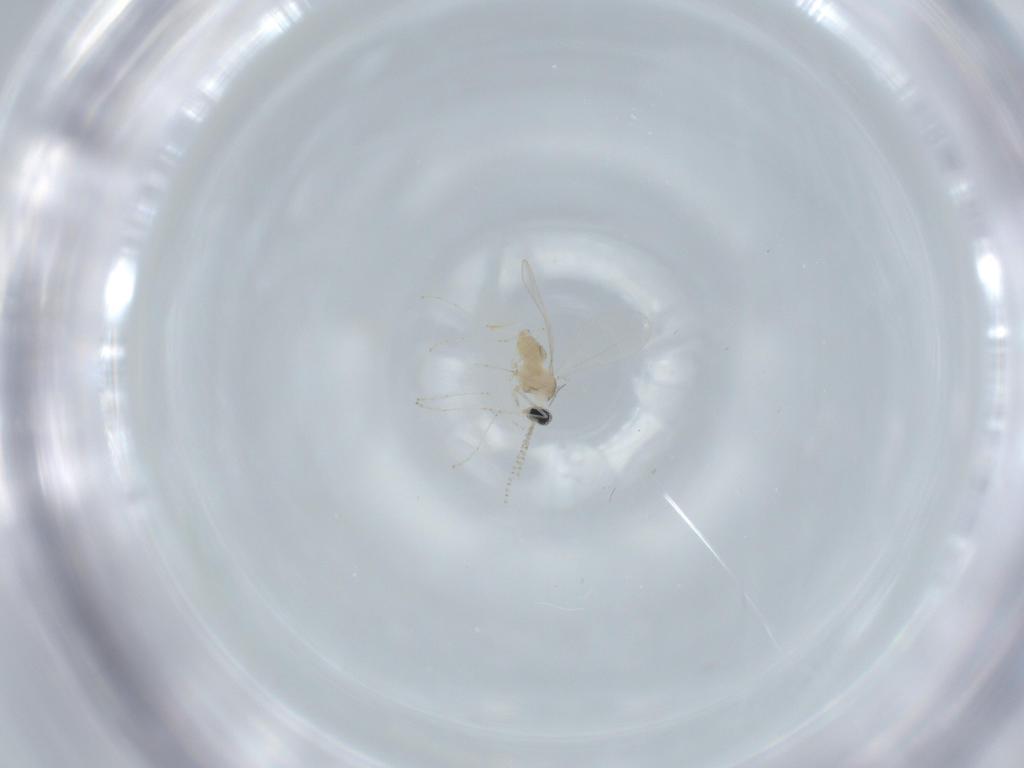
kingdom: Animalia
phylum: Arthropoda
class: Insecta
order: Diptera
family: Cecidomyiidae
